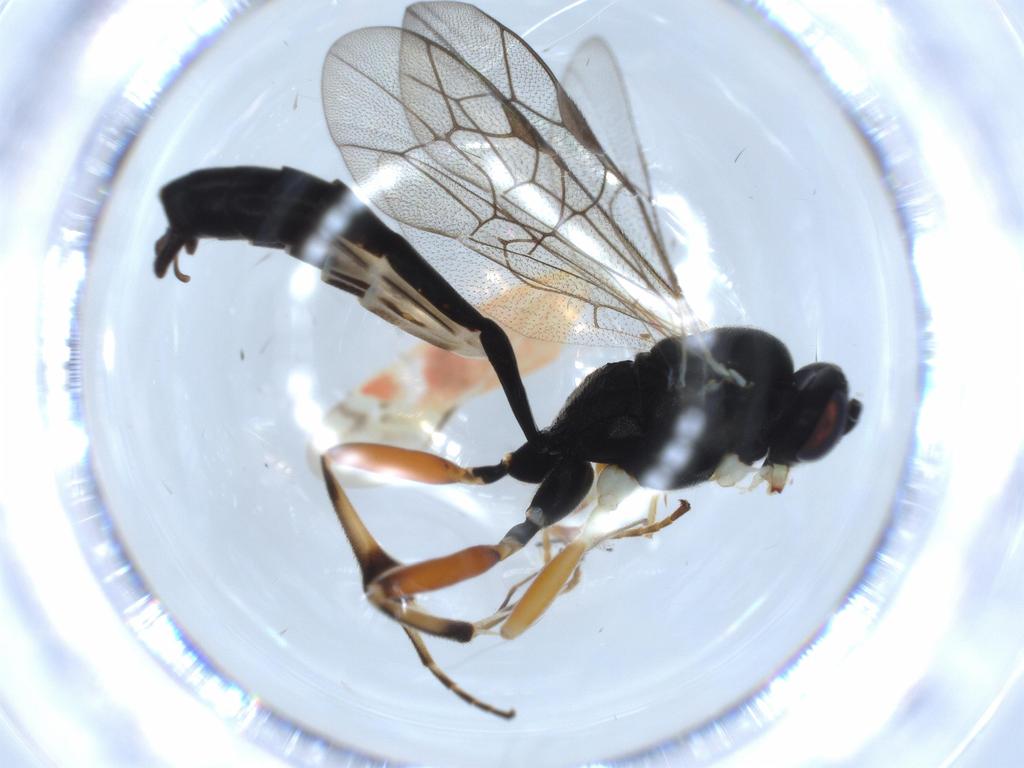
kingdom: Animalia
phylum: Arthropoda
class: Insecta
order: Hymenoptera
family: Ichneumonidae
